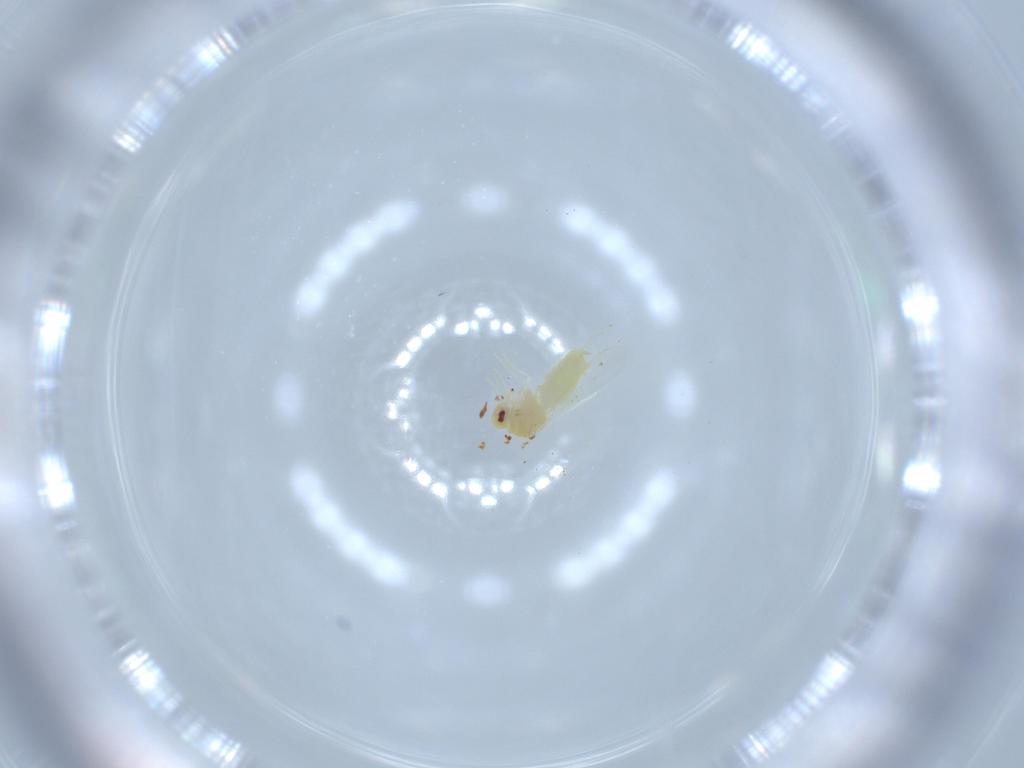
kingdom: Animalia
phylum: Arthropoda
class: Insecta
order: Hemiptera
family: Aleyrodidae
